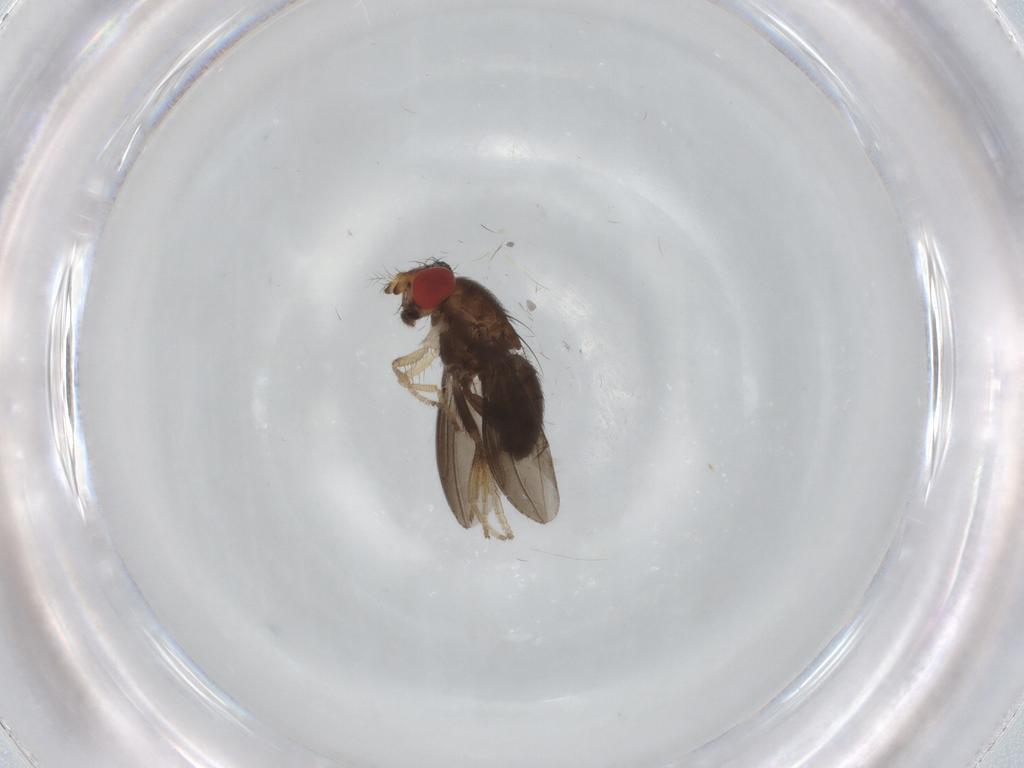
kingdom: Animalia
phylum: Arthropoda
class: Insecta
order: Diptera
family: Drosophilidae
